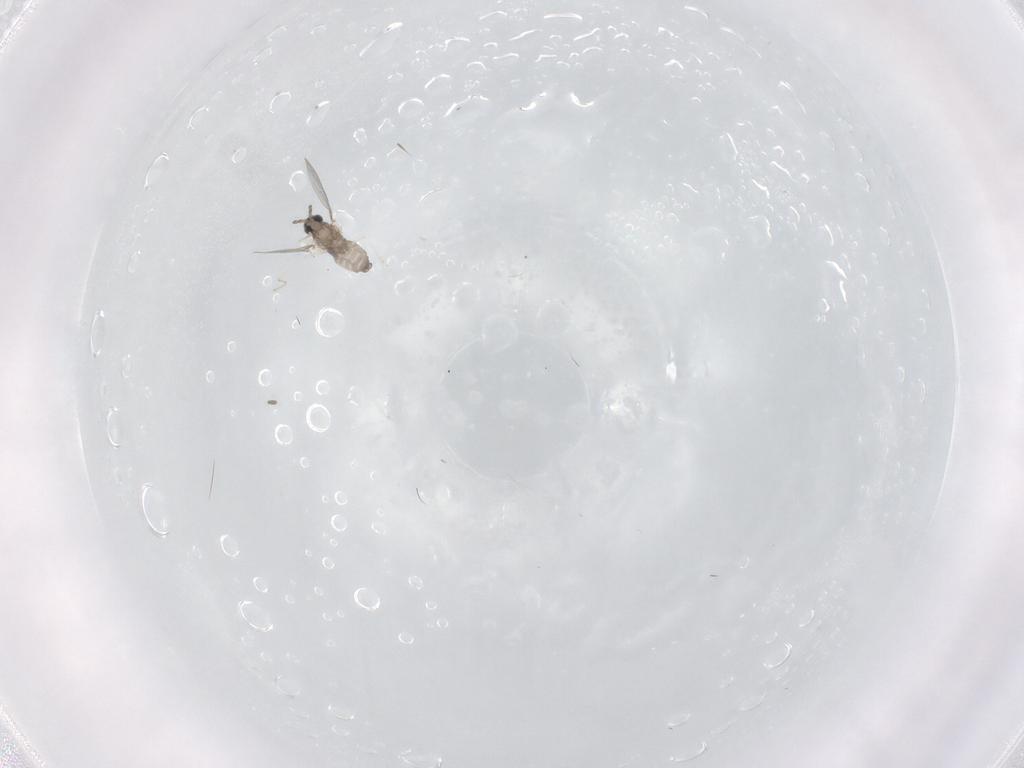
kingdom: Animalia
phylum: Arthropoda
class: Insecta
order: Diptera
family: Cecidomyiidae
